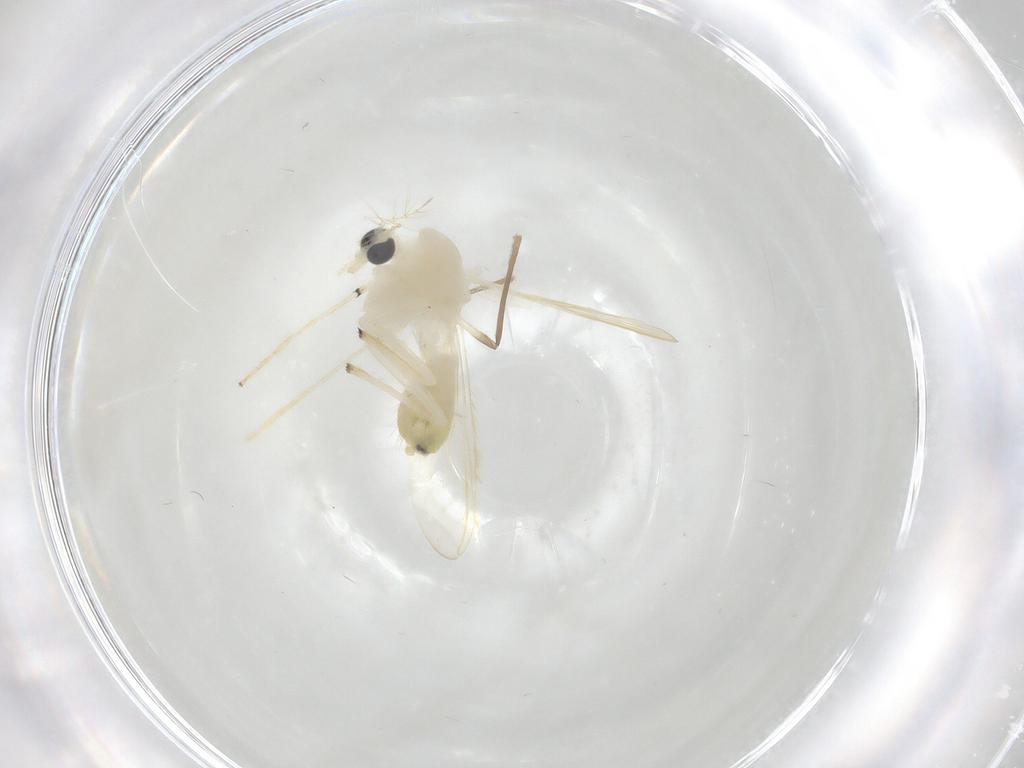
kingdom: Animalia
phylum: Arthropoda
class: Insecta
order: Diptera
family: Chironomidae
